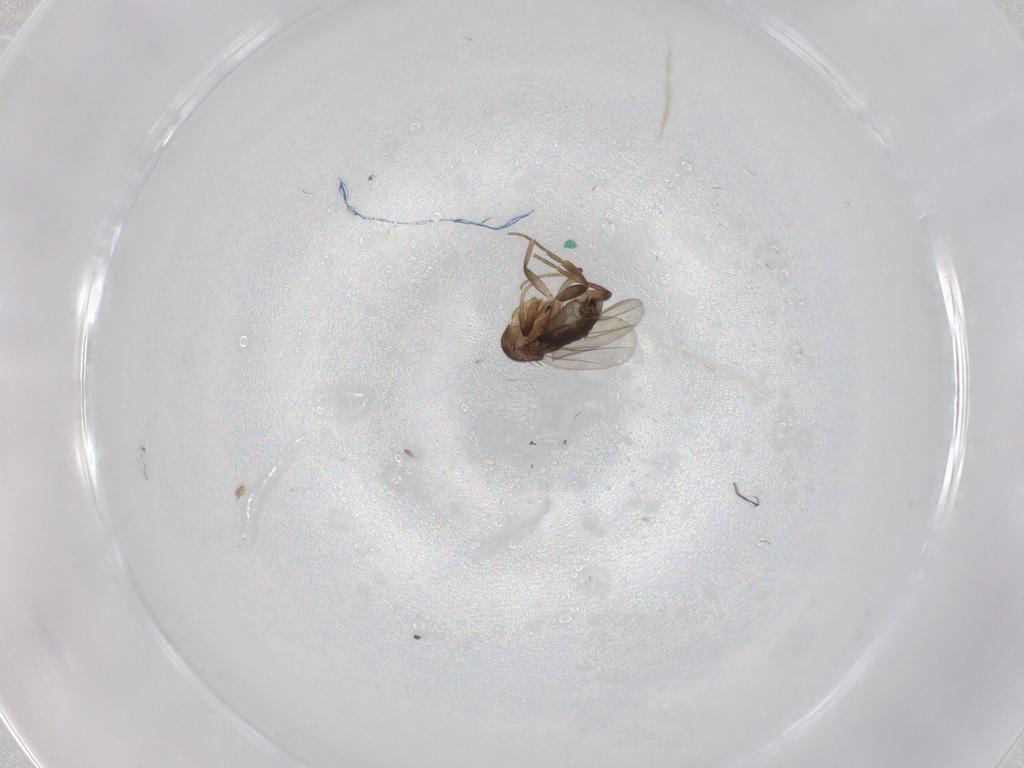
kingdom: Animalia
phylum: Arthropoda
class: Insecta
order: Diptera
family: Phoridae
